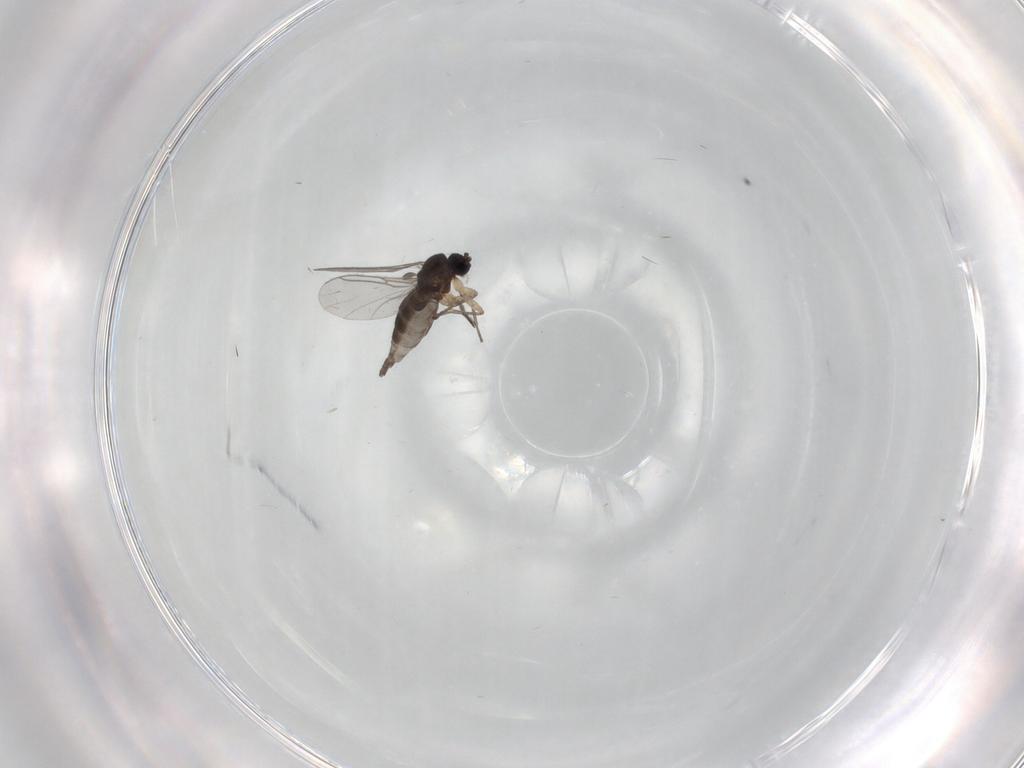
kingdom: Animalia
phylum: Arthropoda
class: Insecta
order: Diptera
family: Sciaridae
